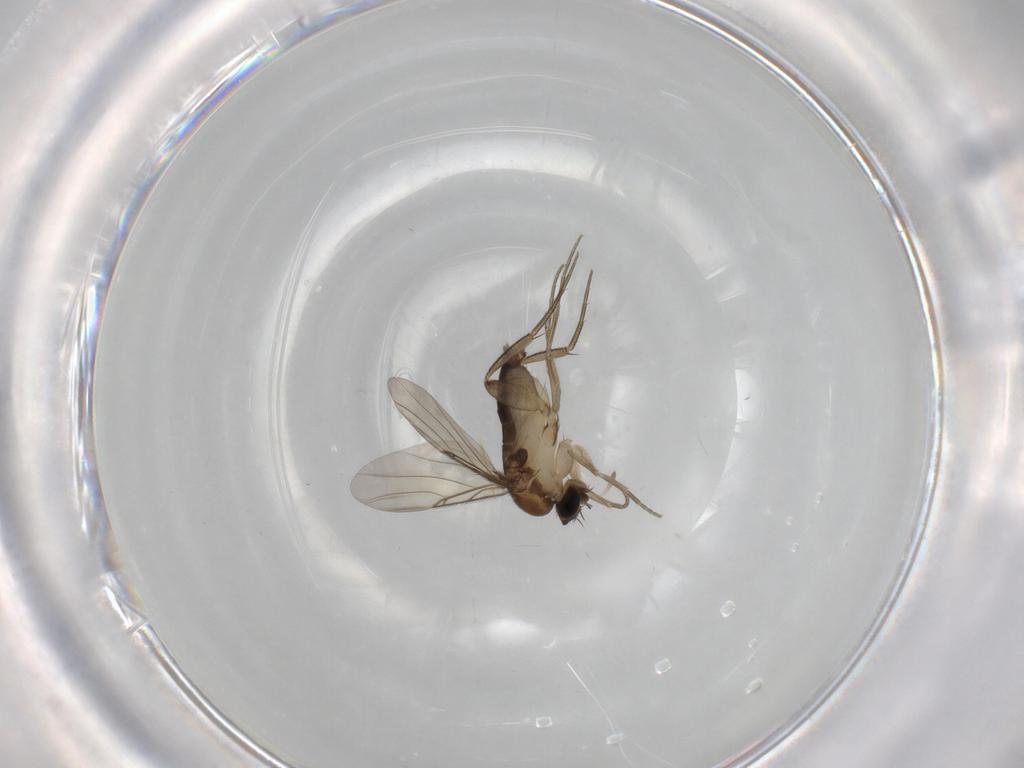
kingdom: Animalia
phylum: Arthropoda
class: Insecta
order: Diptera
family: Phoridae
